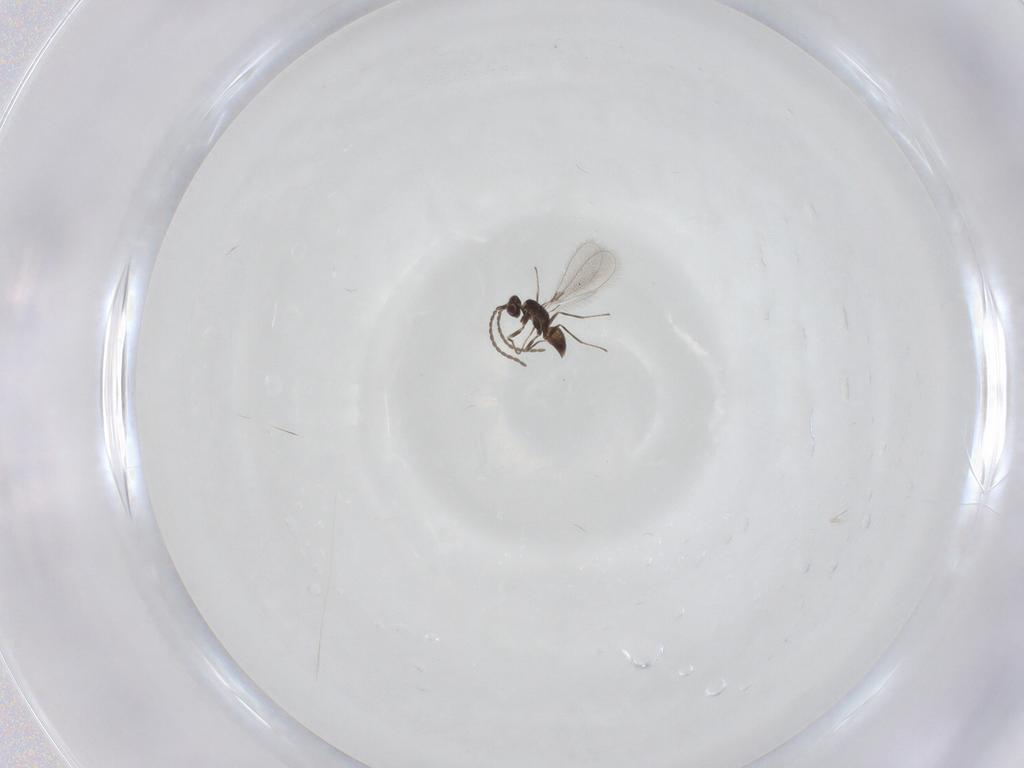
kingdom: Animalia
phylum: Arthropoda
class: Insecta
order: Hymenoptera
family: Mymaridae
